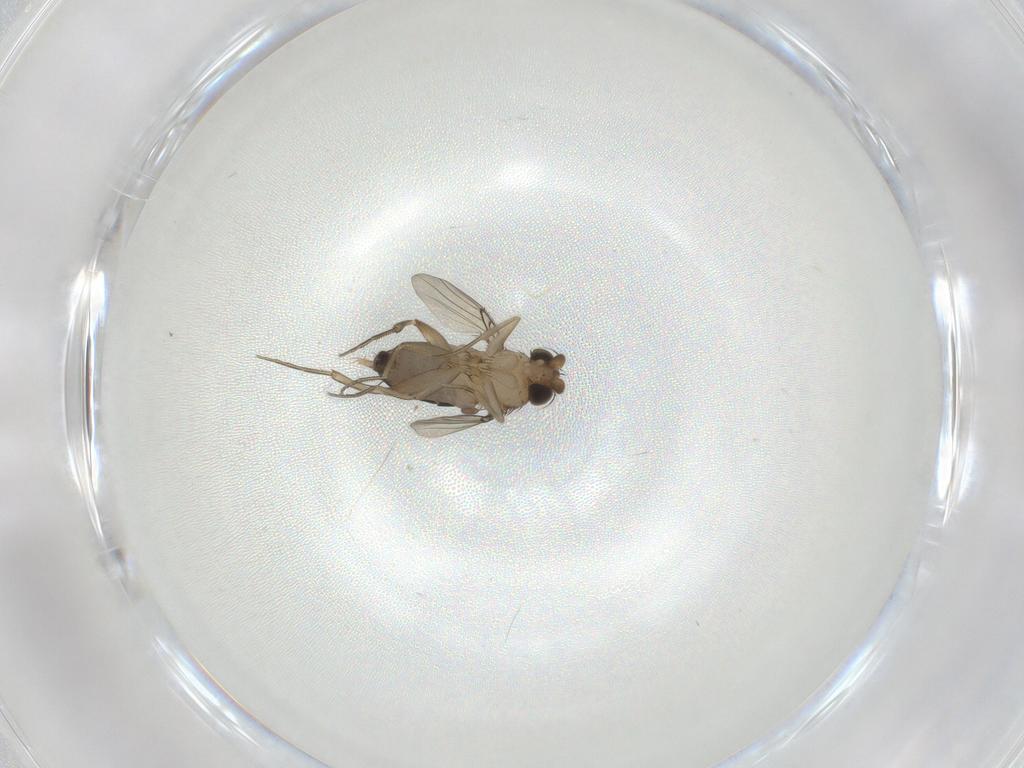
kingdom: Animalia
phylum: Arthropoda
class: Insecta
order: Diptera
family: Phoridae
